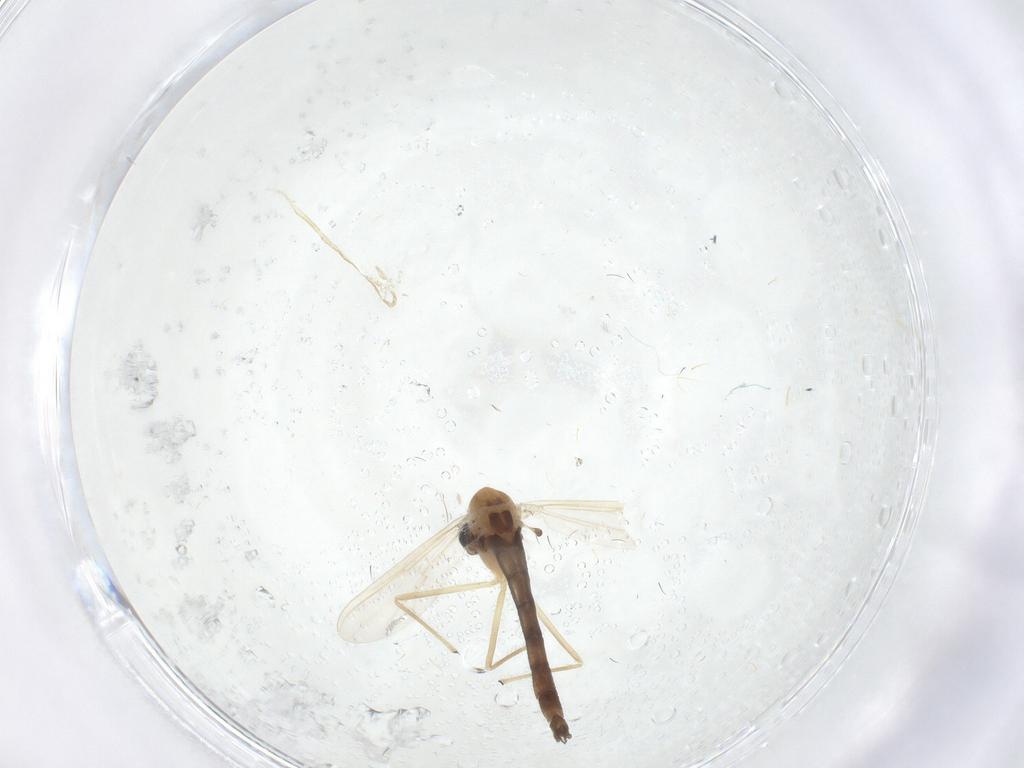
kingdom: Animalia
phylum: Arthropoda
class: Insecta
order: Diptera
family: Chironomidae
